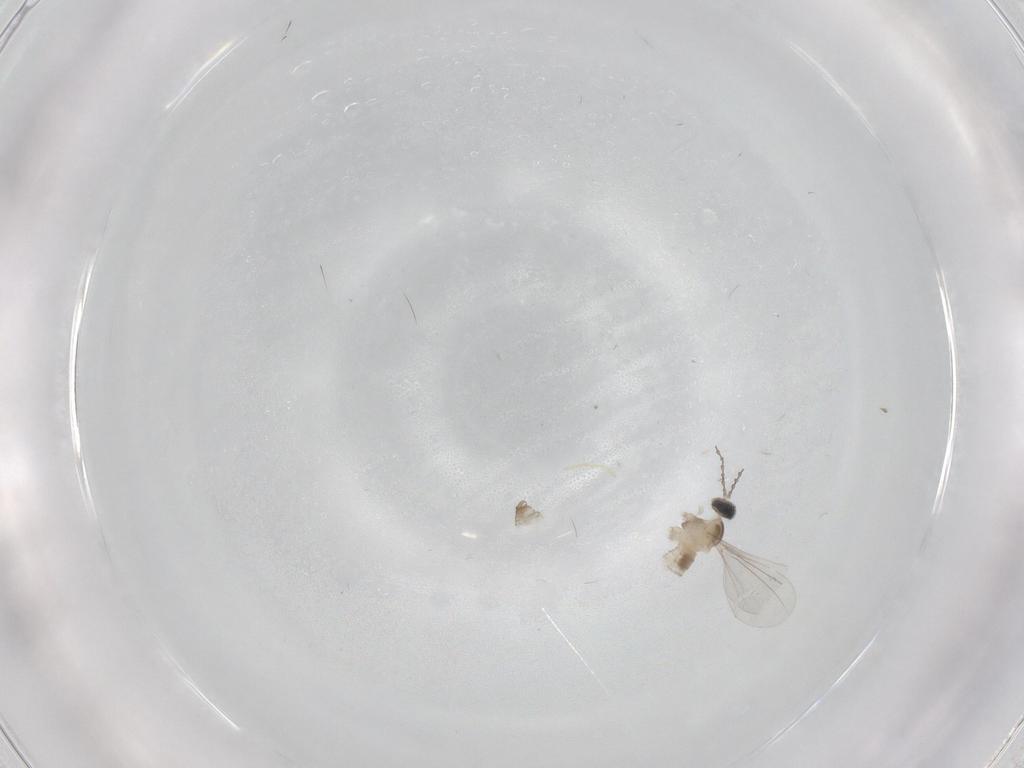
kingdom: Animalia
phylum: Arthropoda
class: Insecta
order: Diptera
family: Cecidomyiidae
